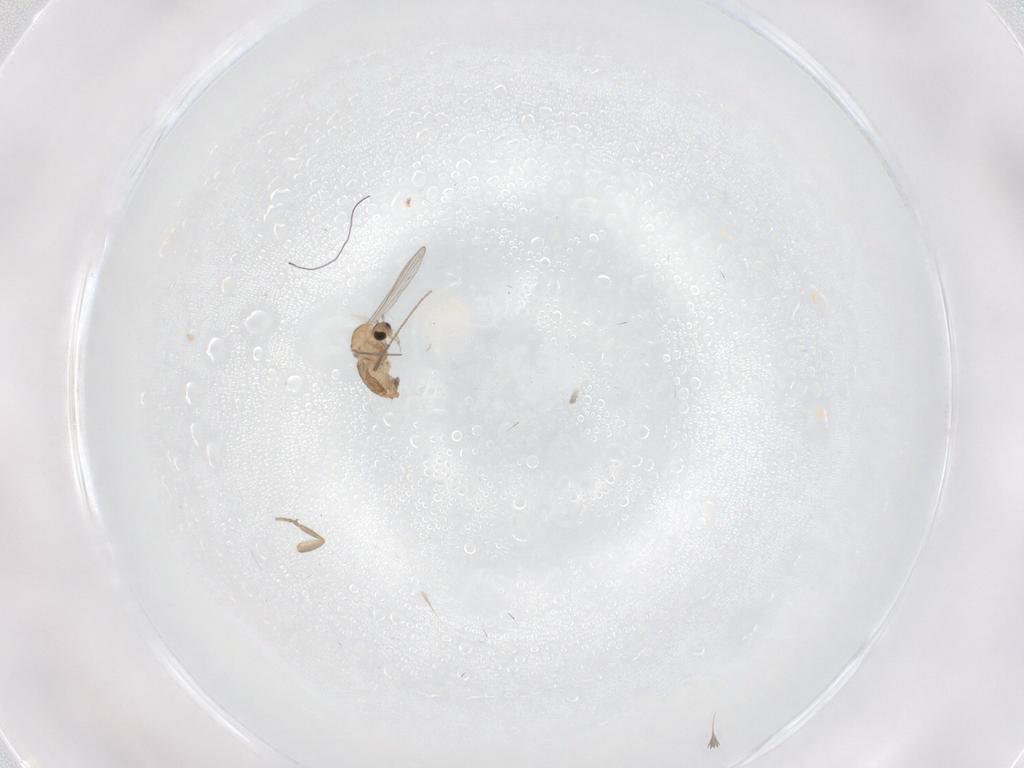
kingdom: Animalia
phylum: Arthropoda
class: Insecta
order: Diptera
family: Chironomidae
